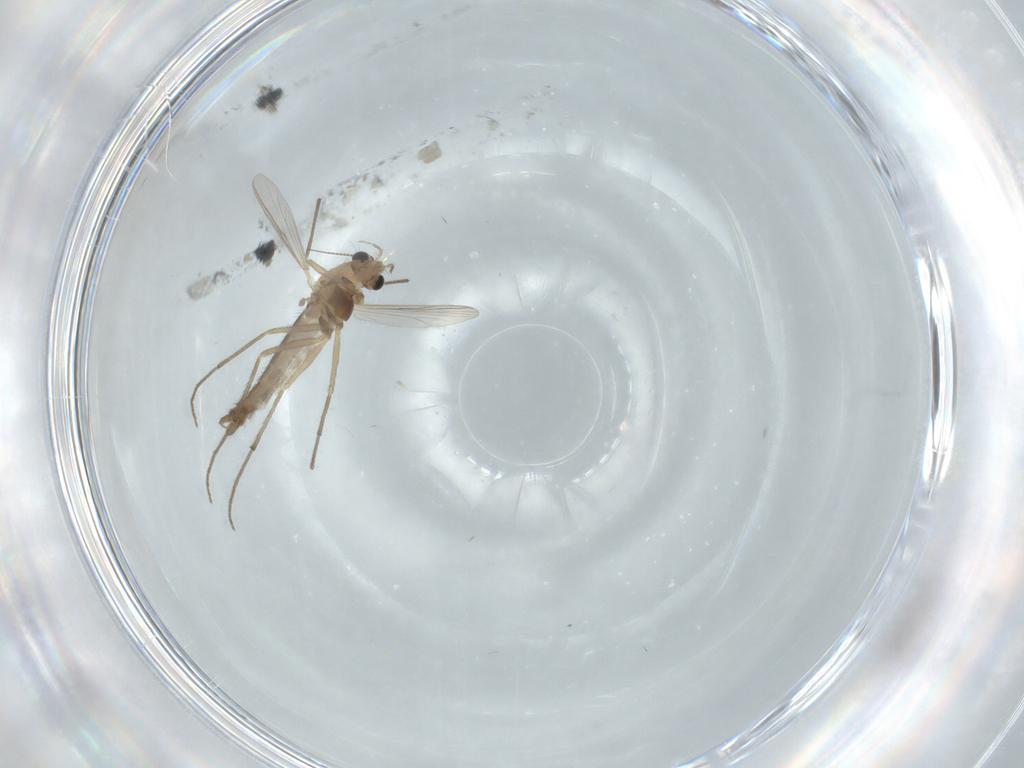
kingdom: Animalia
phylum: Arthropoda
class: Insecta
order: Diptera
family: Chironomidae
